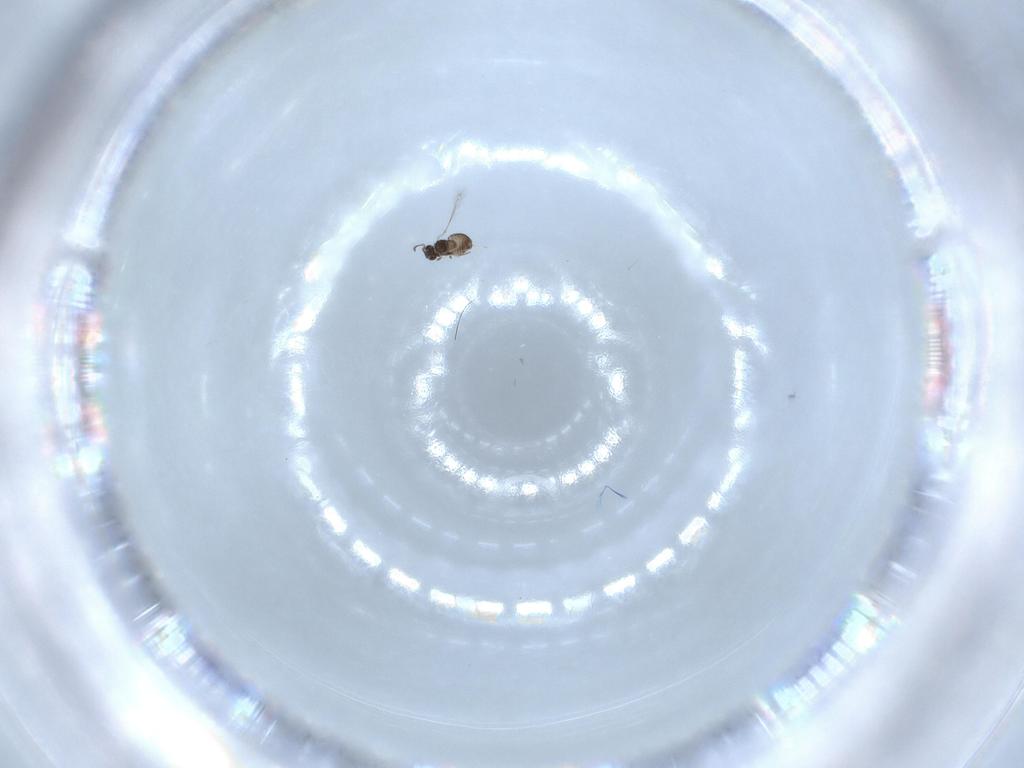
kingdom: Animalia
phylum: Arthropoda
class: Insecta
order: Hymenoptera
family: Mymaridae
